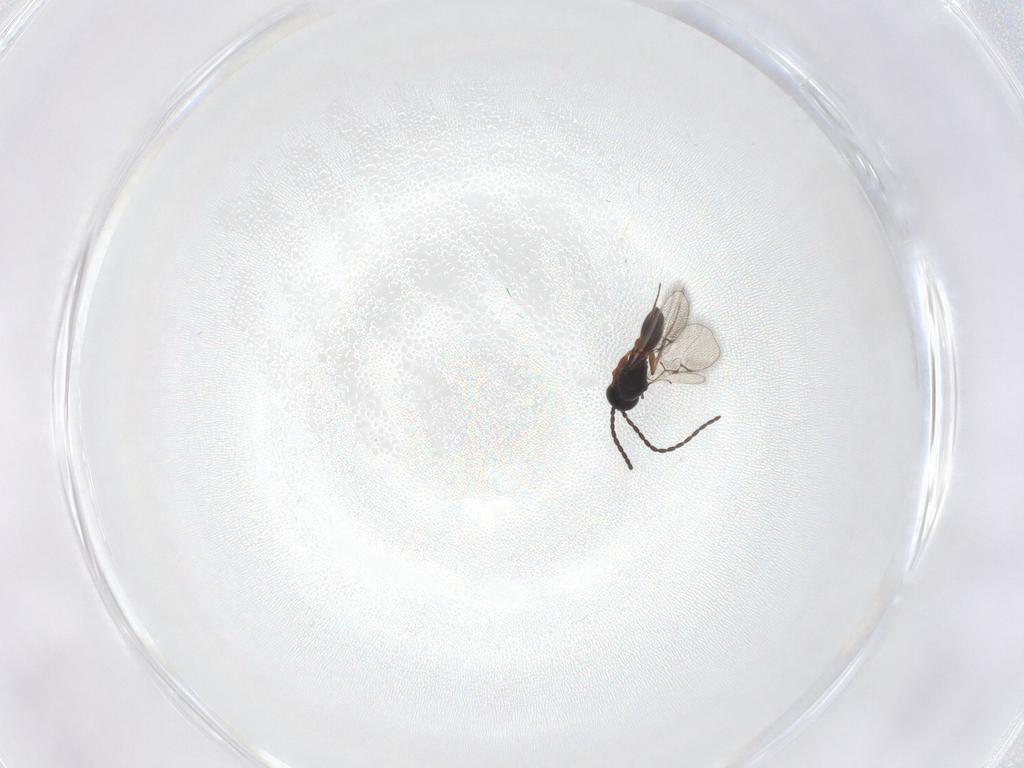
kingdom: Animalia
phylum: Arthropoda
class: Insecta
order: Hymenoptera
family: Figitidae
